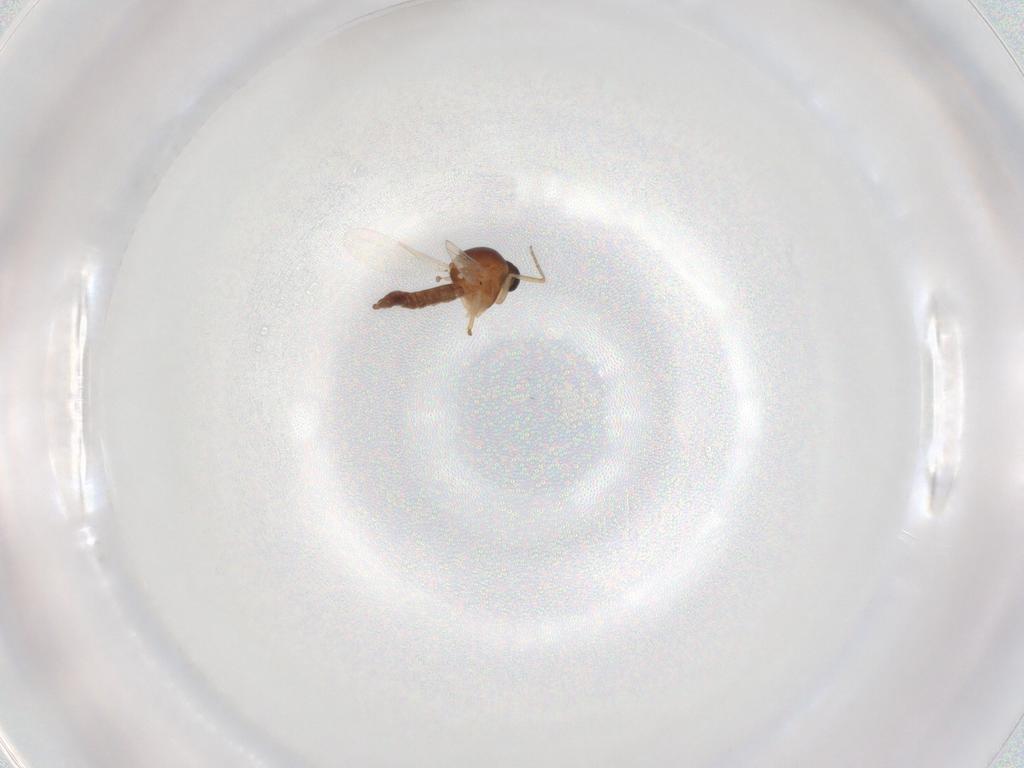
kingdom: Animalia
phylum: Arthropoda
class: Insecta
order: Diptera
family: Ceratopogonidae
